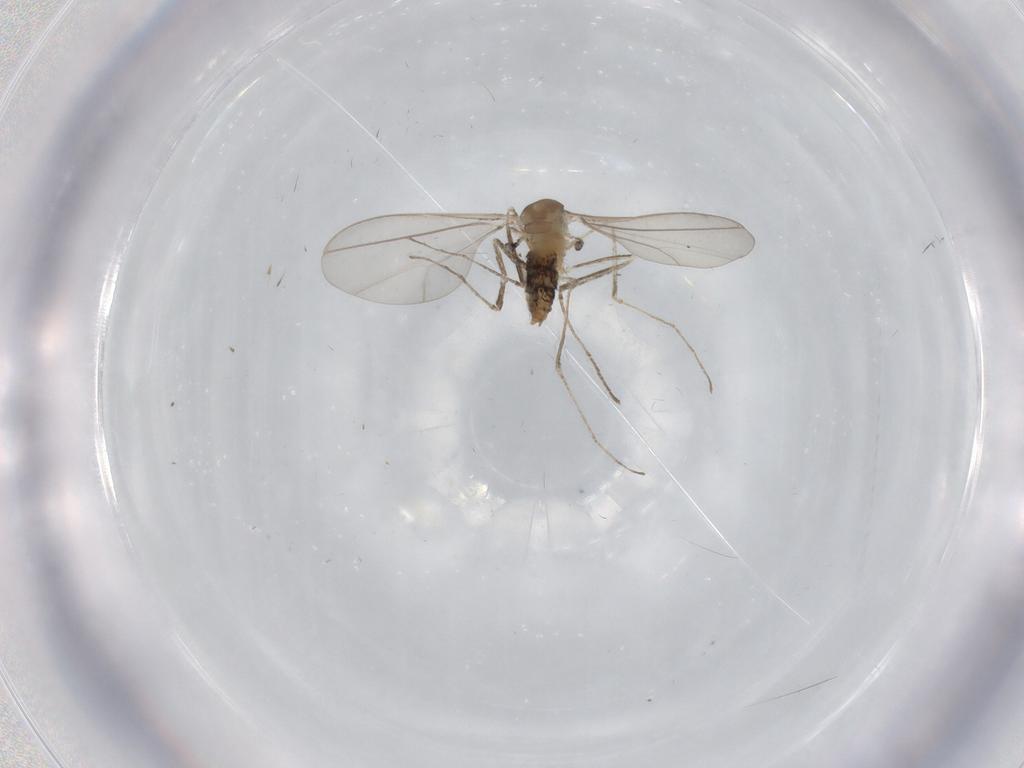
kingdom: Animalia
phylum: Arthropoda
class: Insecta
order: Diptera
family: Cecidomyiidae
